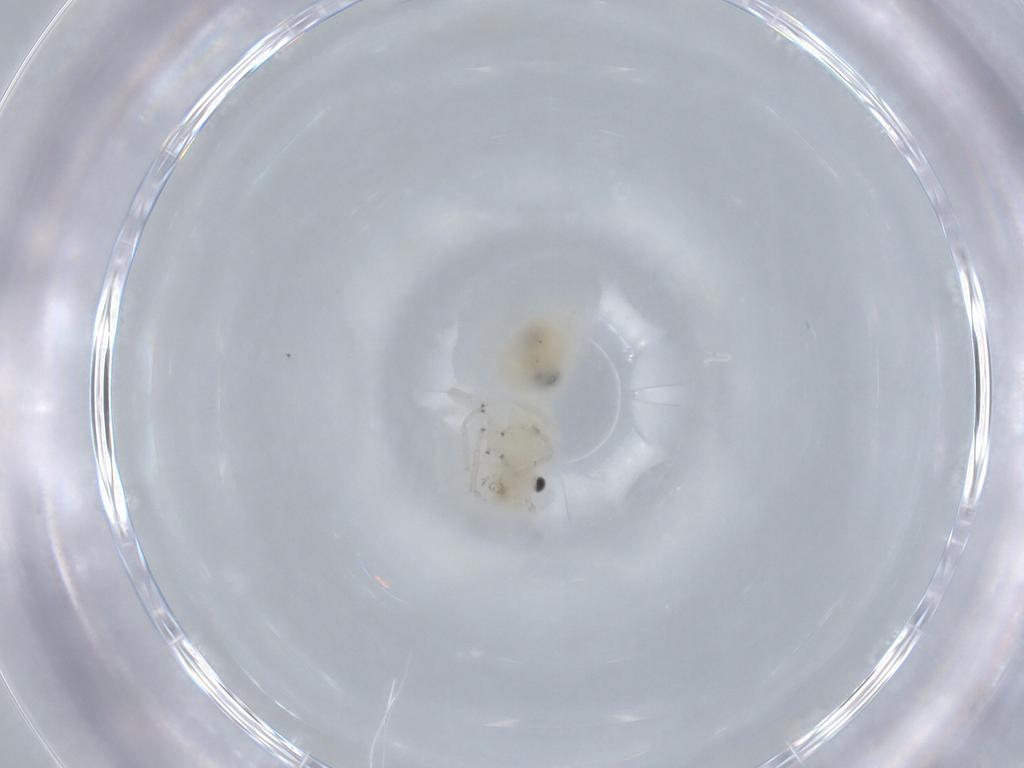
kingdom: Animalia
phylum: Arthropoda
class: Insecta
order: Psocodea
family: Caeciliusidae
